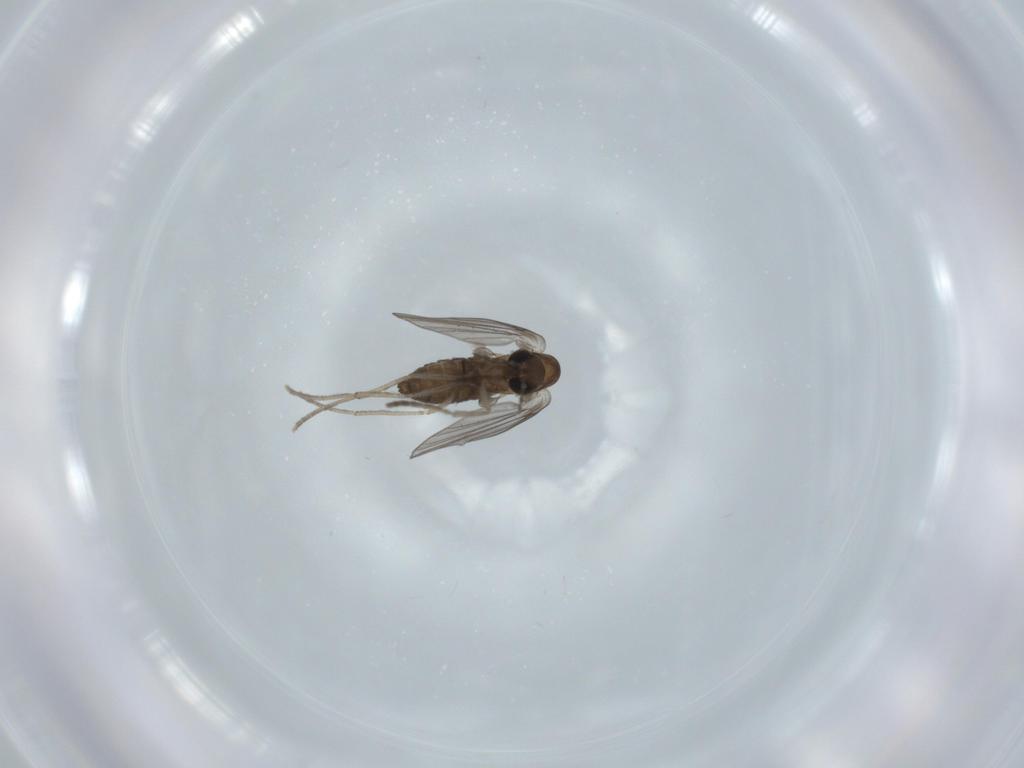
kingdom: Animalia
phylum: Arthropoda
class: Insecta
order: Diptera
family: Psychodidae
